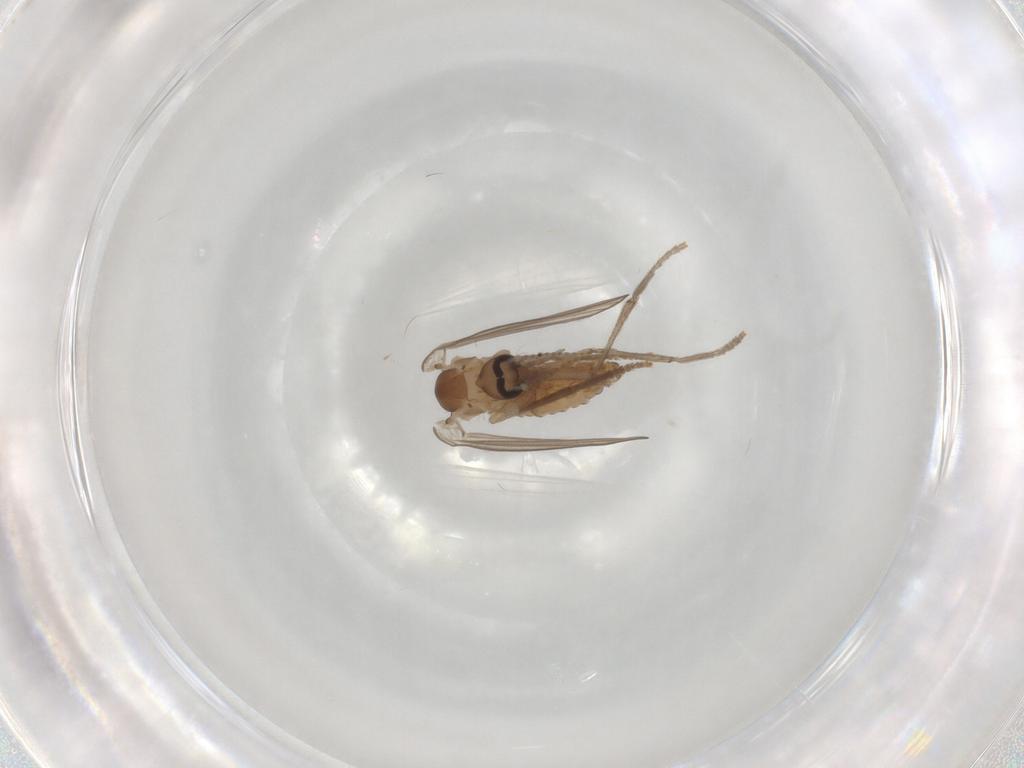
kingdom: Animalia
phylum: Arthropoda
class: Insecta
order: Diptera
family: Psychodidae
